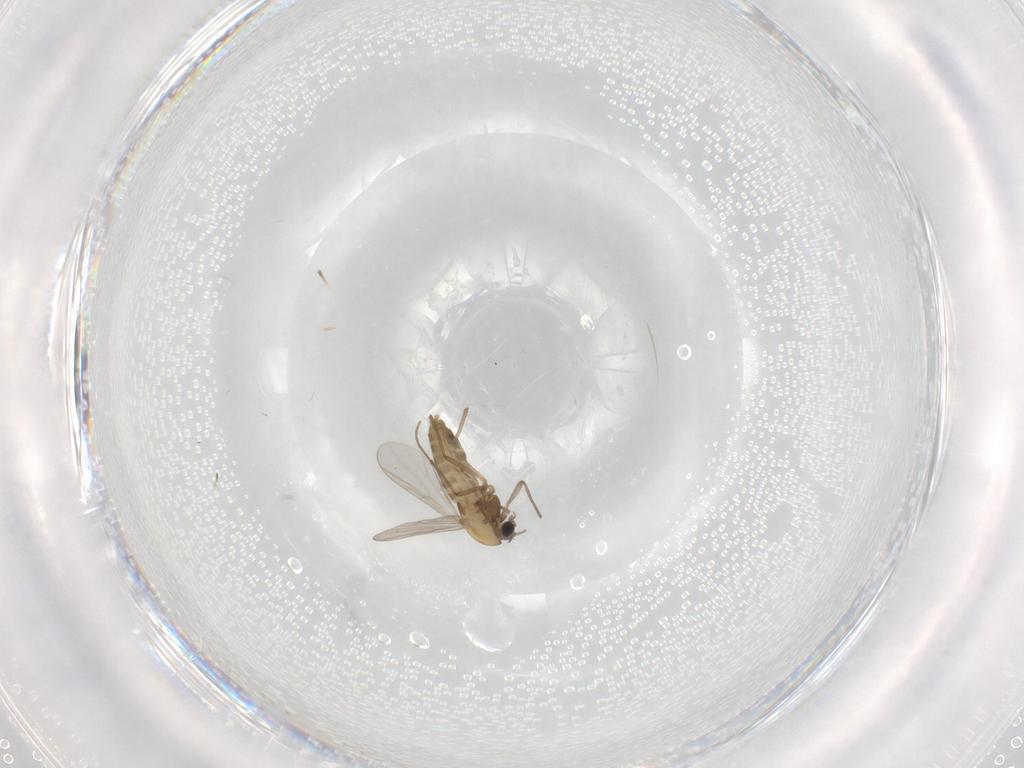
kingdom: Animalia
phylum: Arthropoda
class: Insecta
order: Diptera
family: Chironomidae
